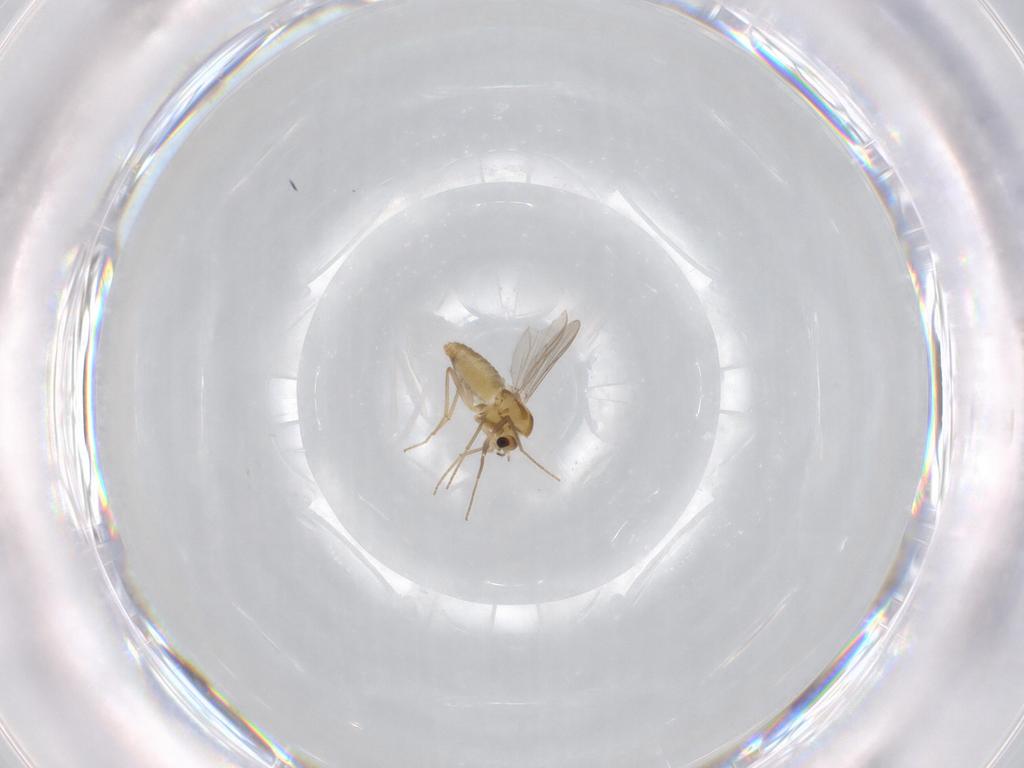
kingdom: Animalia
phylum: Arthropoda
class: Insecta
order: Diptera
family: Chironomidae
